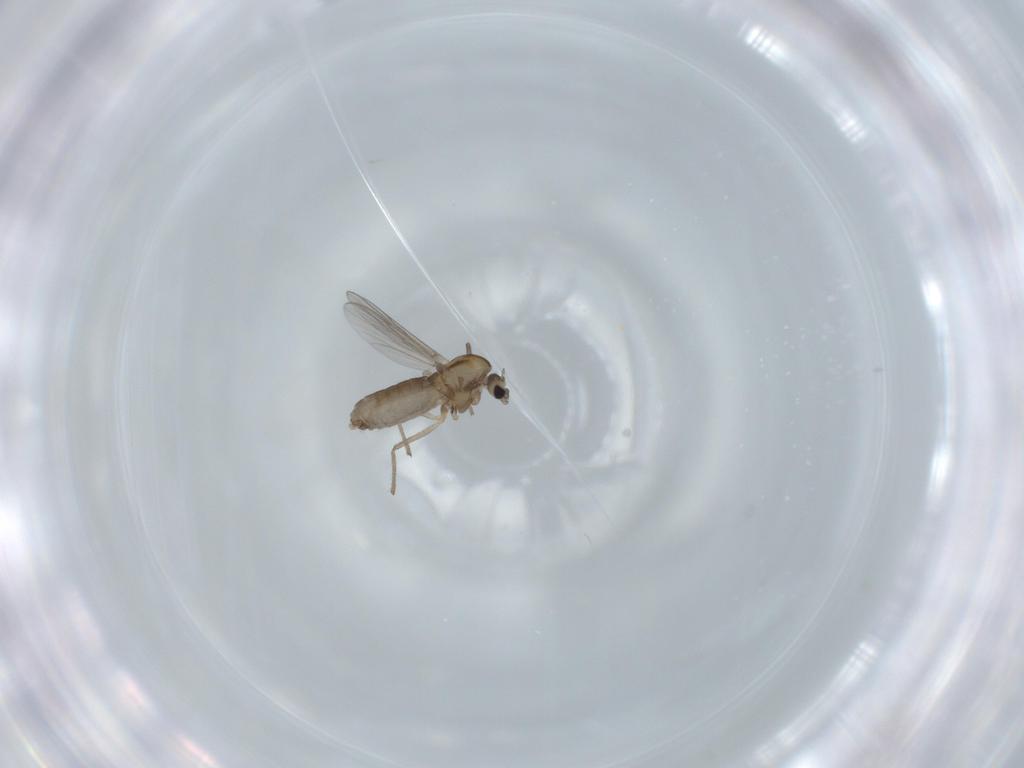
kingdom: Animalia
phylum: Arthropoda
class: Insecta
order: Diptera
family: Chironomidae
